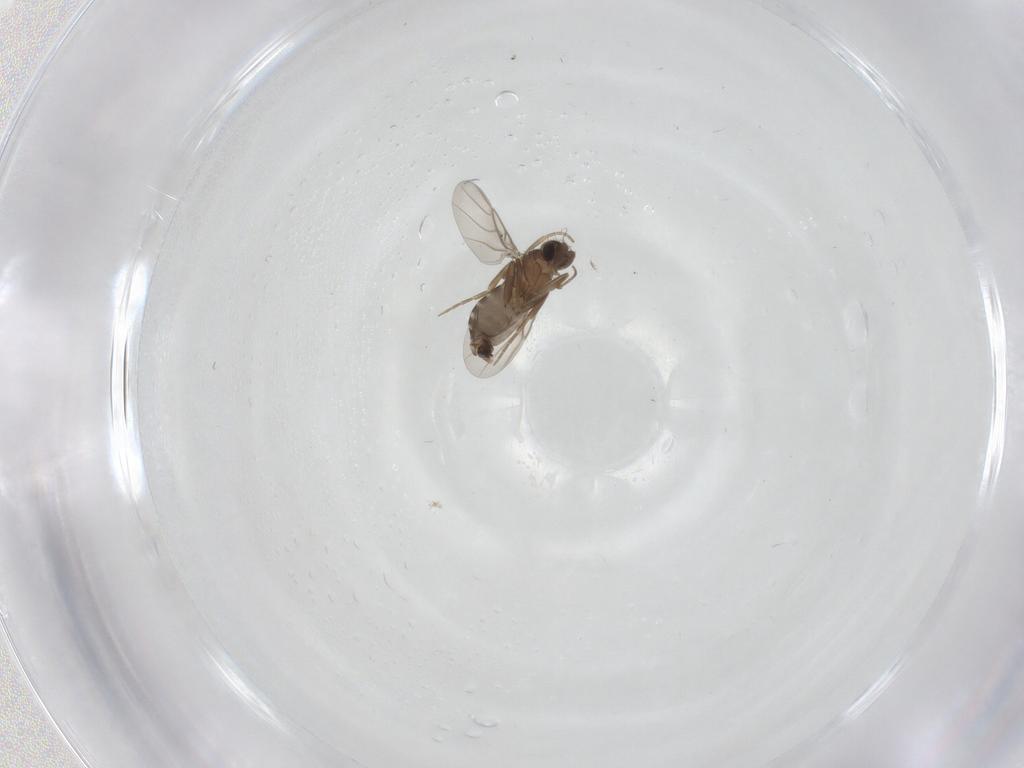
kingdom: Animalia
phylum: Arthropoda
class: Insecta
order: Diptera
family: Phoridae
